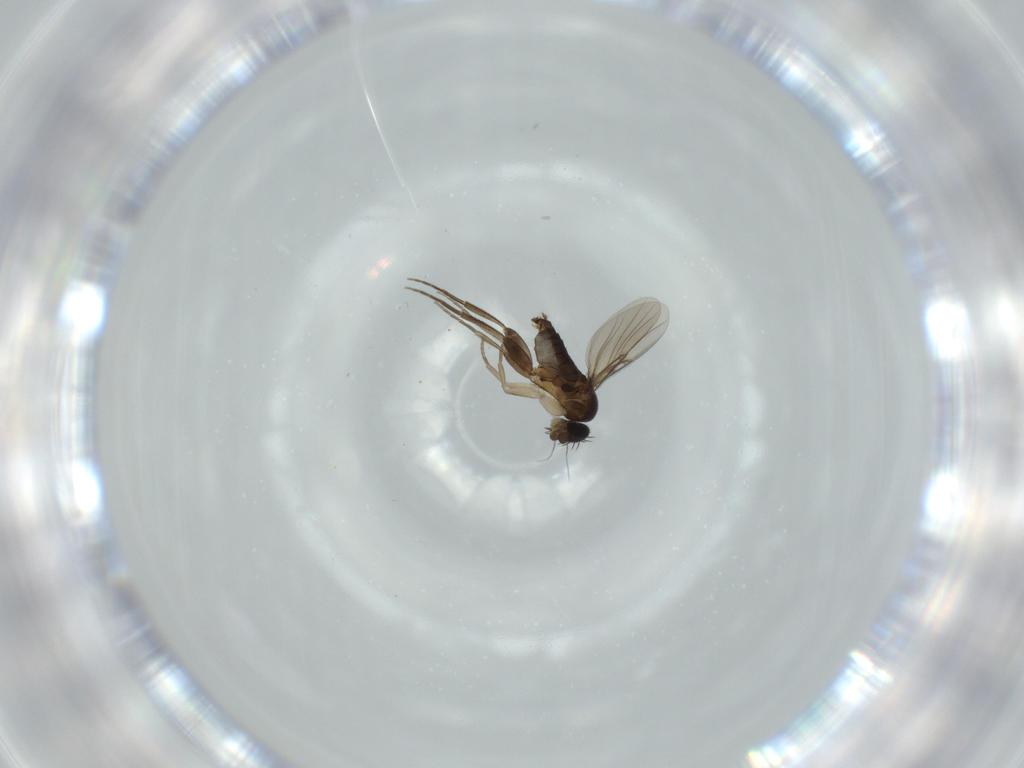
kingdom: Animalia
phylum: Arthropoda
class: Insecta
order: Diptera
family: Phoridae
